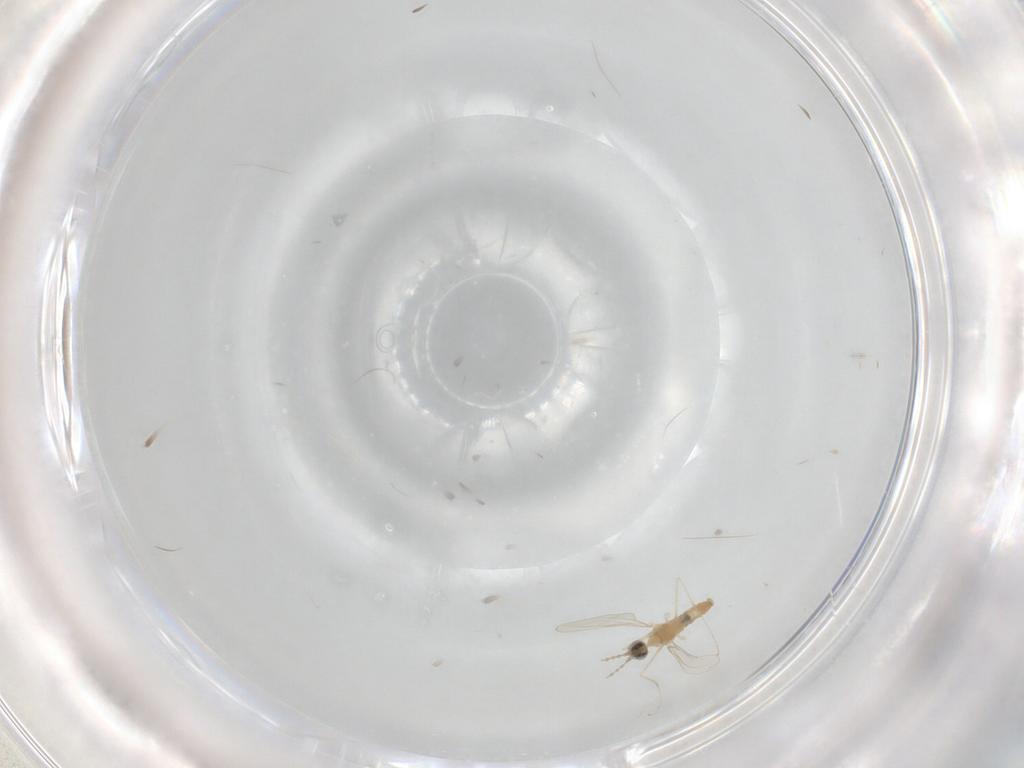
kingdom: Animalia
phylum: Arthropoda
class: Insecta
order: Diptera
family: Cecidomyiidae
